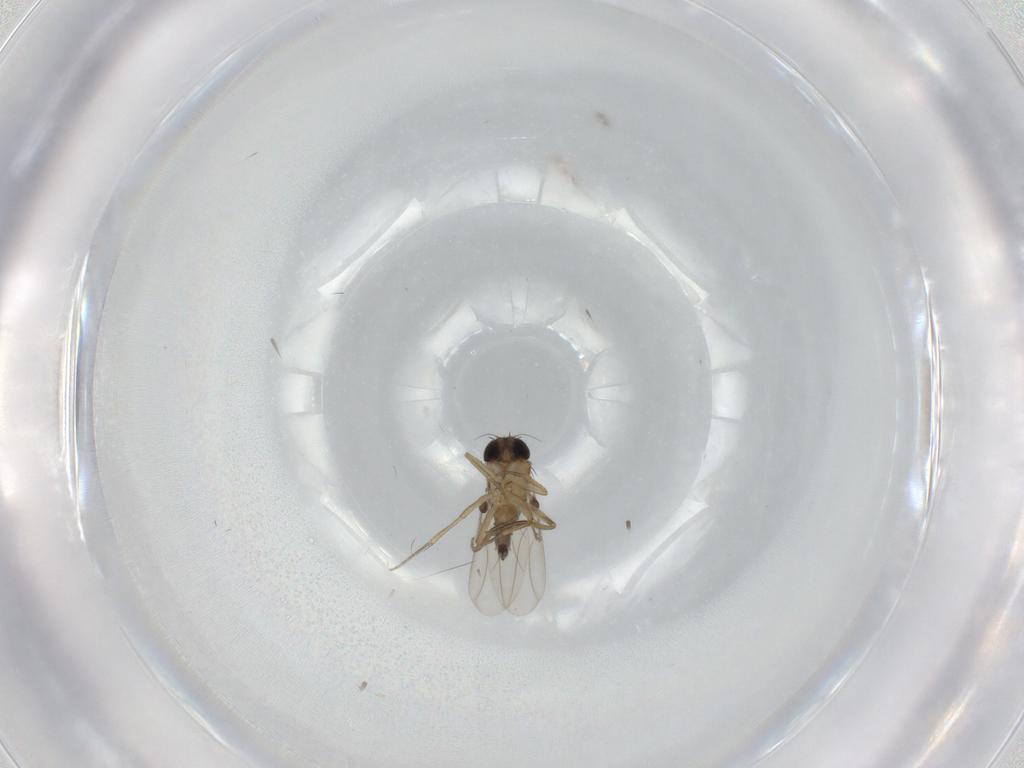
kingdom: Animalia
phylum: Arthropoda
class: Insecta
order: Diptera
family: Phoridae
